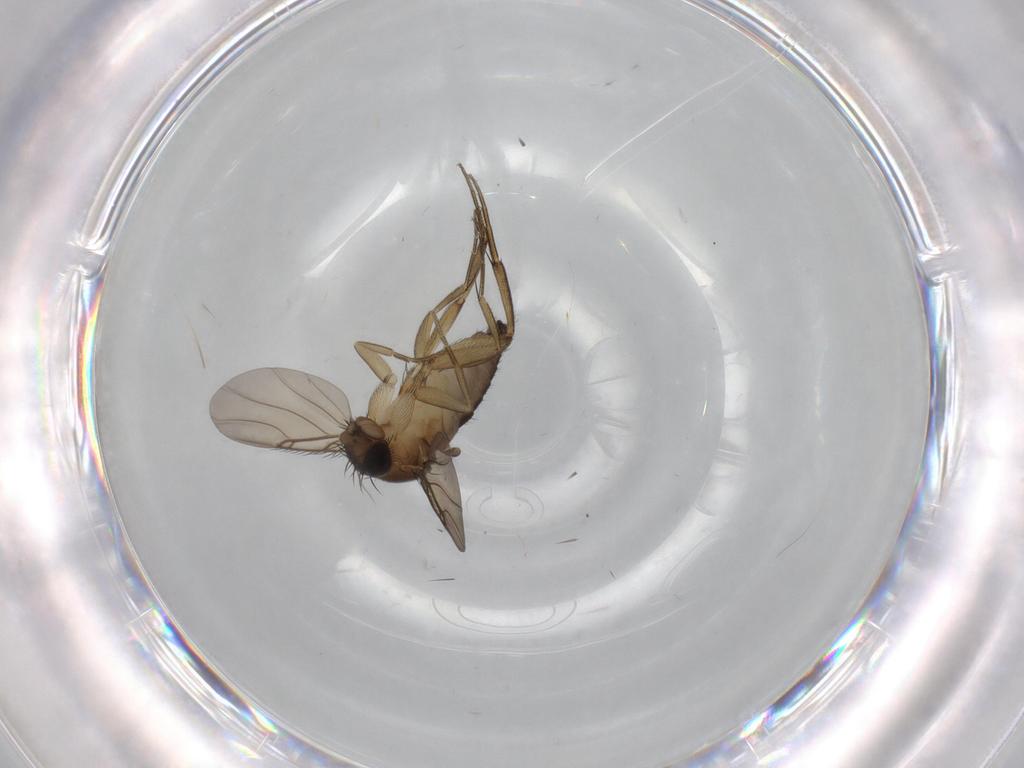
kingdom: Animalia
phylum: Arthropoda
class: Insecta
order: Diptera
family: Phoridae
